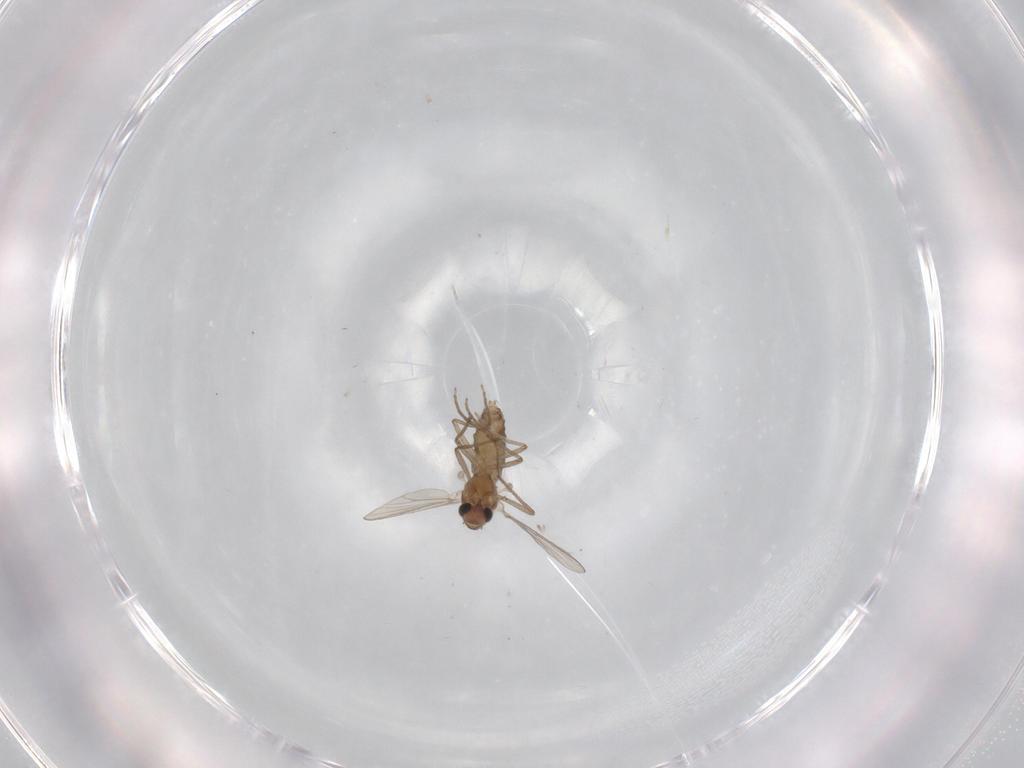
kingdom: Animalia
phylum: Arthropoda
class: Insecta
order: Diptera
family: Chironomidae
